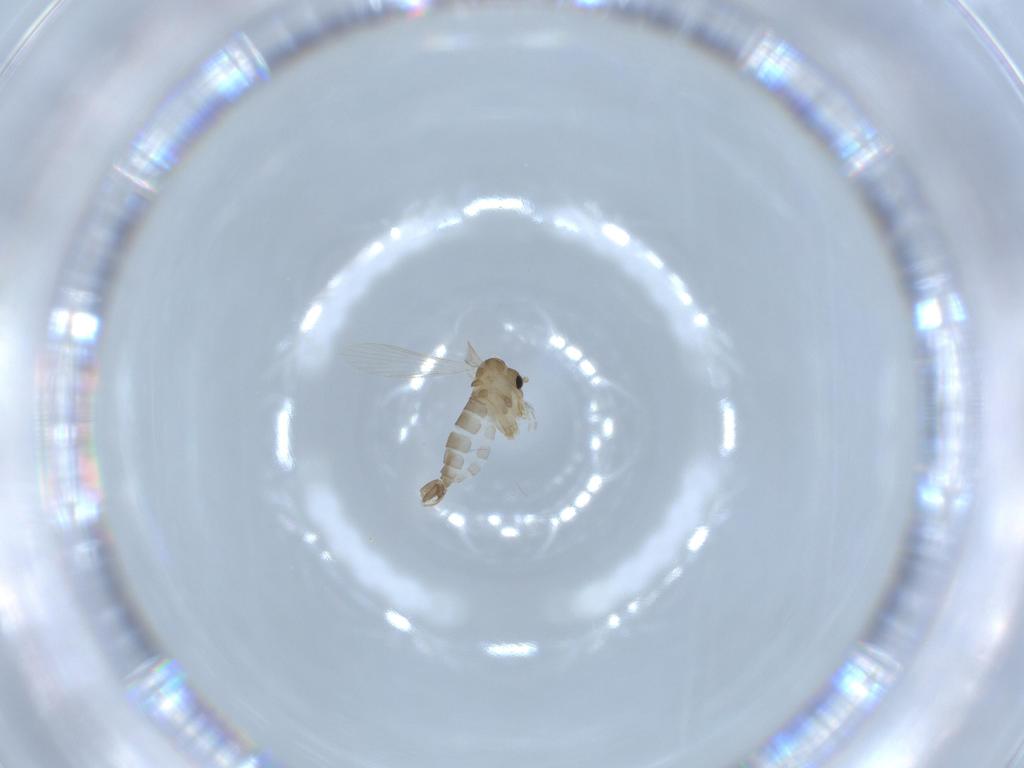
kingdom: Animalia
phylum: Arthropoda
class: Insecta
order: Diptera
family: Psychodidae
